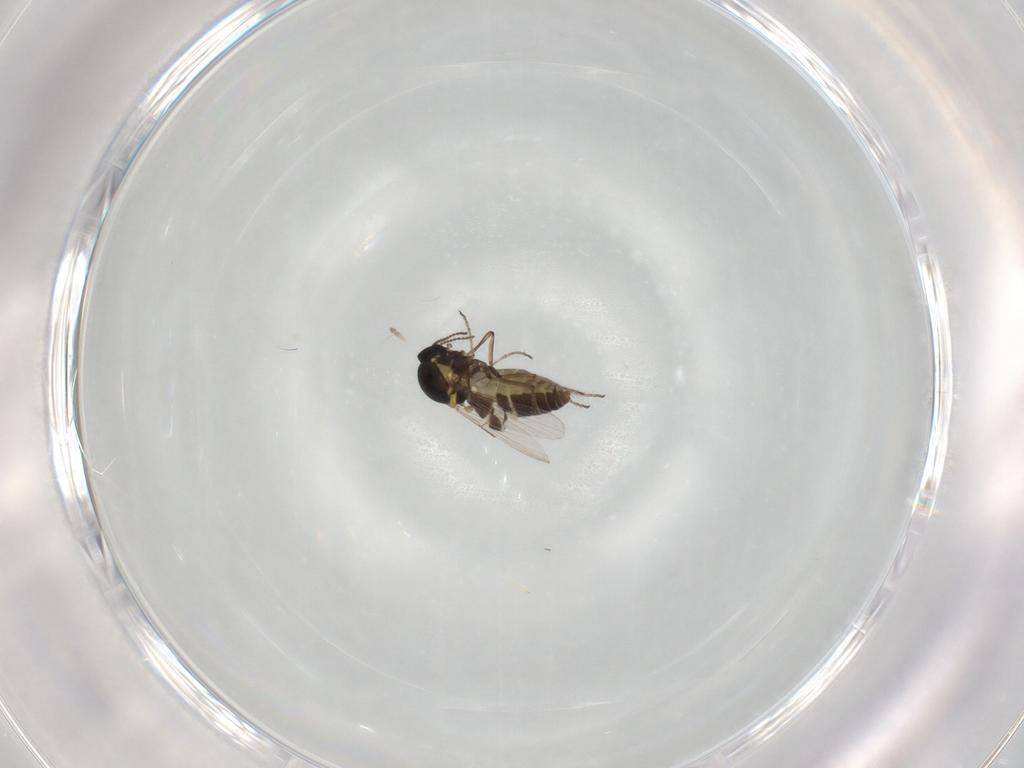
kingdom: Animalia
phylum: Arthropoda
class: Insecta
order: Diptera
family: Ceratopogonidae
